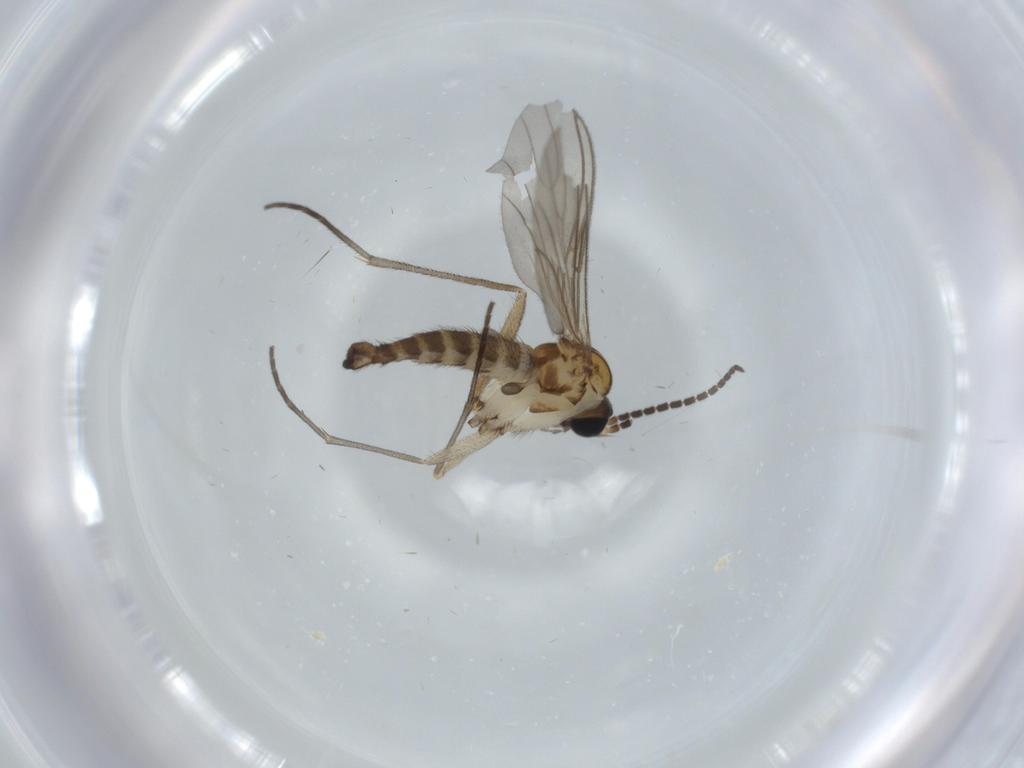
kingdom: Animalia
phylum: Arthropoda
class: Insecta
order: Diptera
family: Sciaridae
